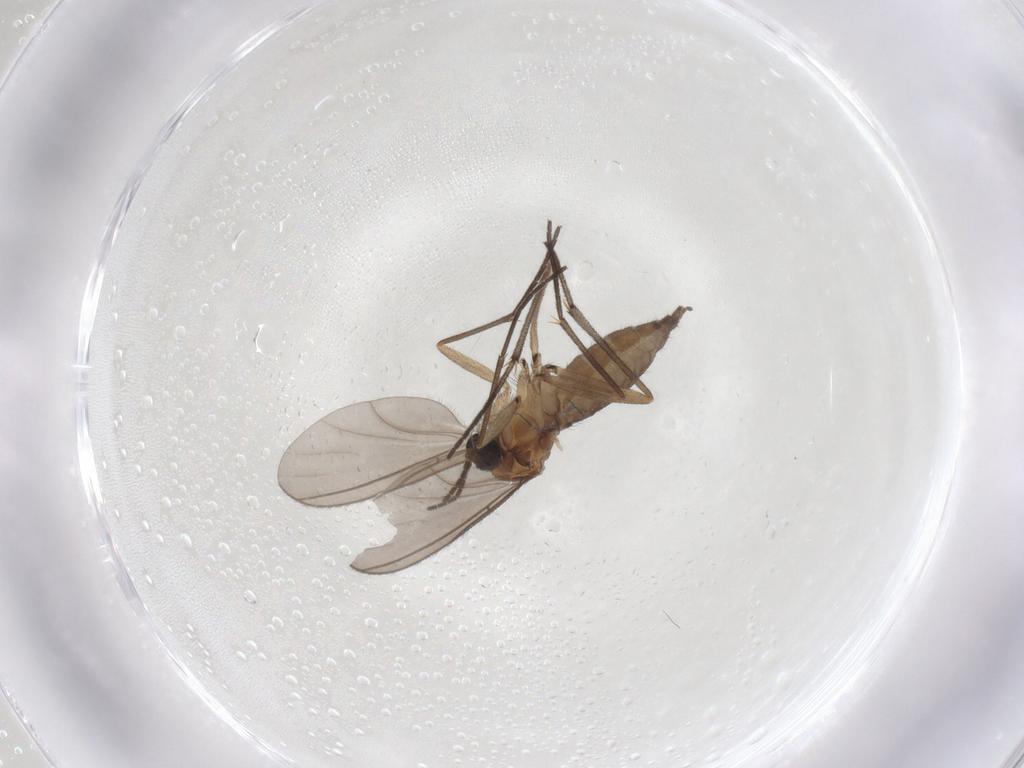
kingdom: Animalia
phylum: Arthropoda
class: Insecta
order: Diptera
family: Sciaridae
